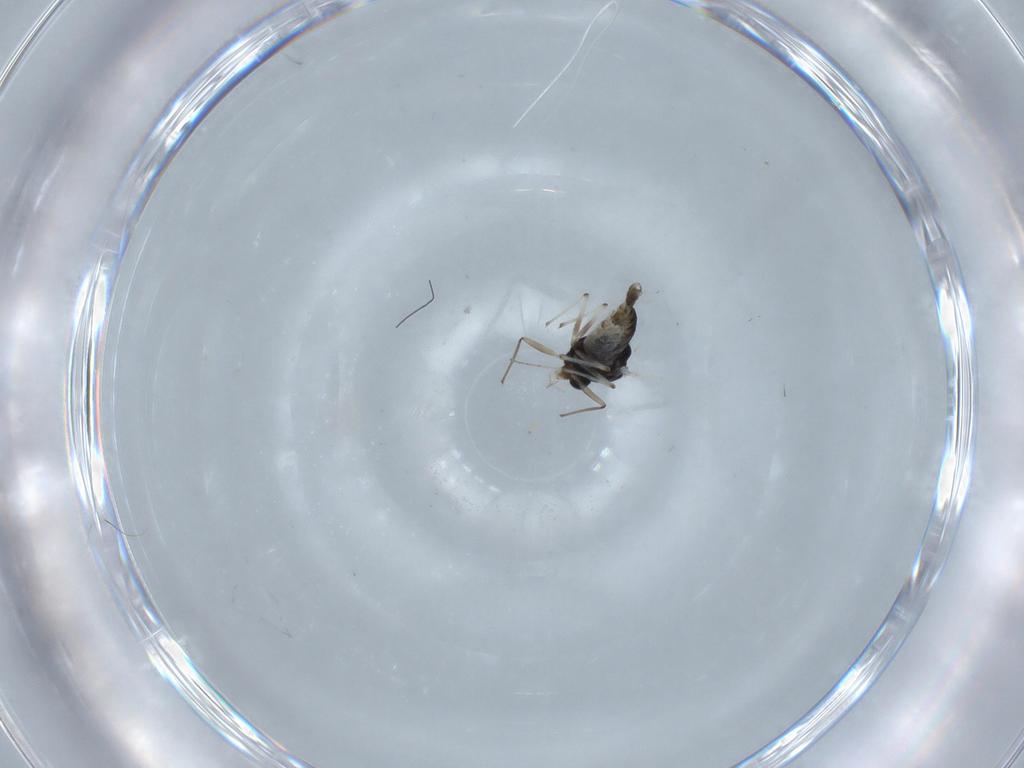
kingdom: Animalia
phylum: Arthropoda
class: Insecta
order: Diptera
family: Chironomidae
